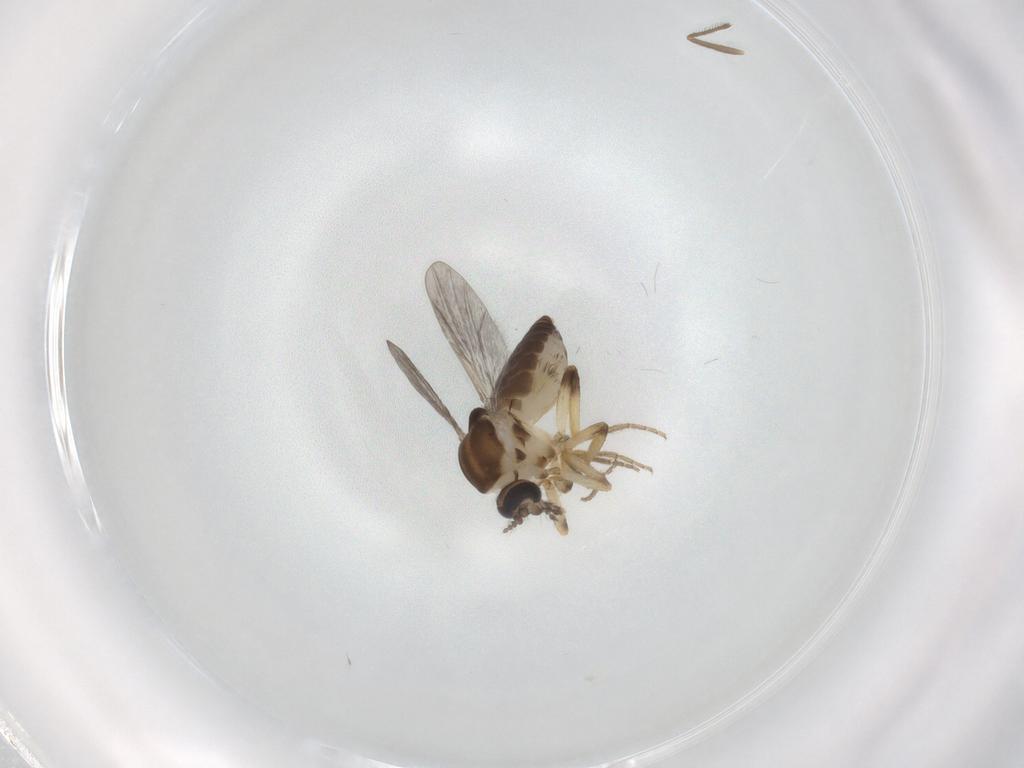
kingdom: Animalia
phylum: Arthropoda
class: Insecta
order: Diptera
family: Ceratopogonidae
